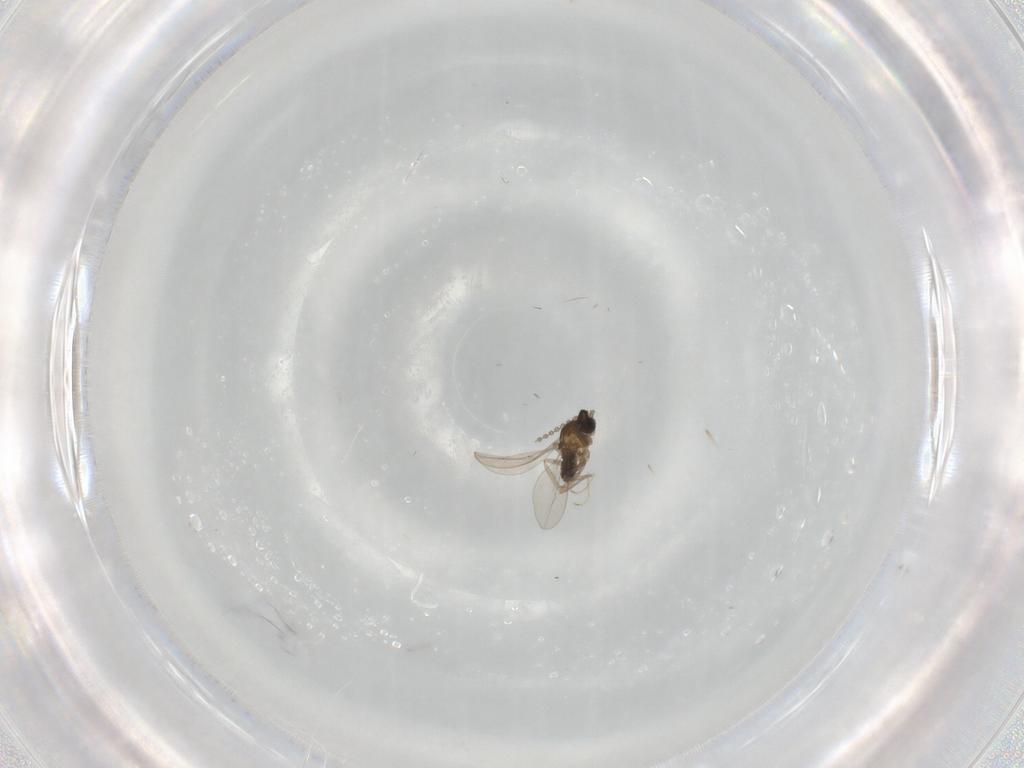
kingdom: Animalia
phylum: Arthropoda
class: Insecta
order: Diptera
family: Cecidomyiidae
